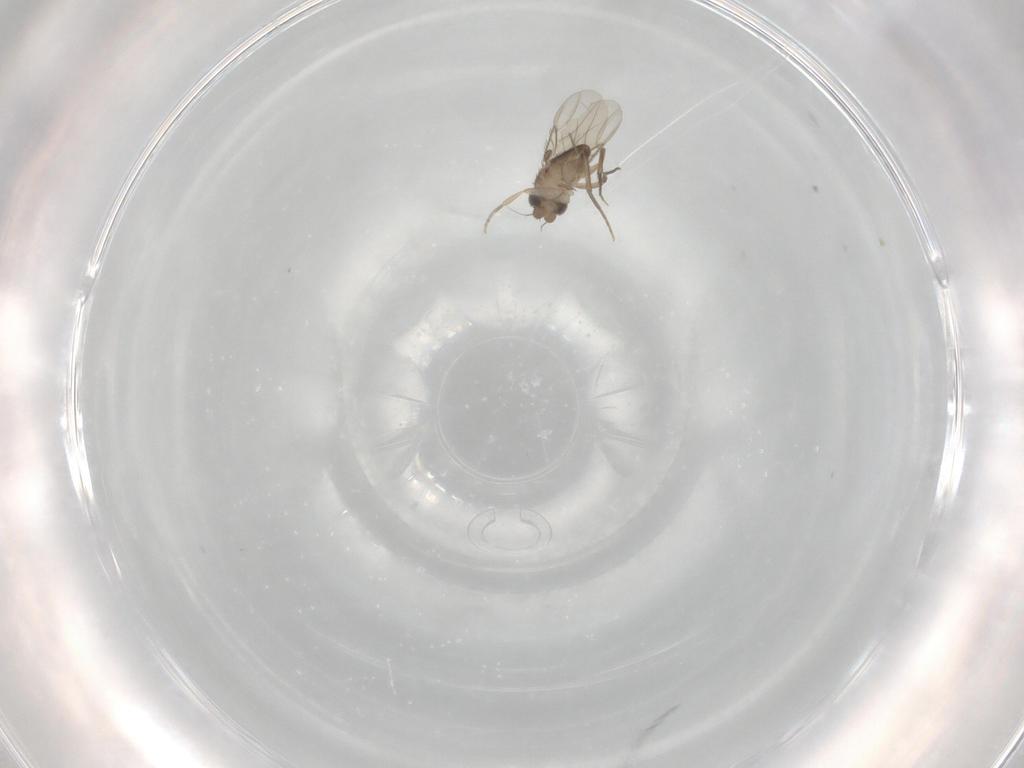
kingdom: Animalia
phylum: Arthropoda
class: Insecta
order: Diptera
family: Phoridae
